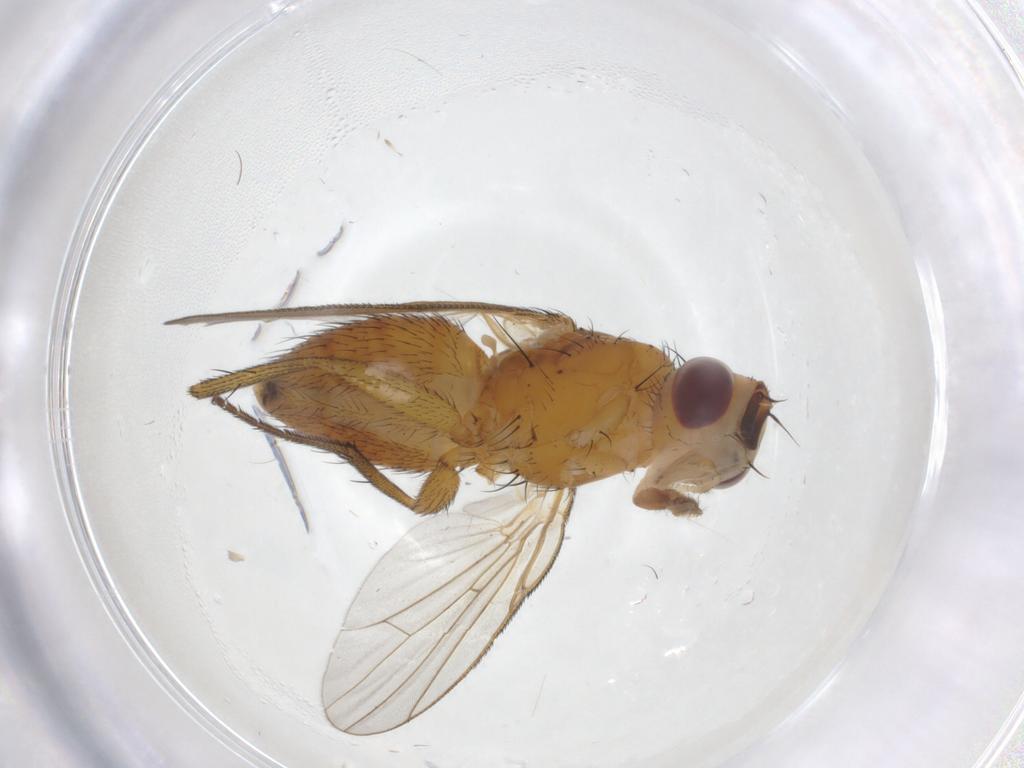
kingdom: Animalia
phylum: Arthropoda
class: Insecta
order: Diptera
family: Muscidae
